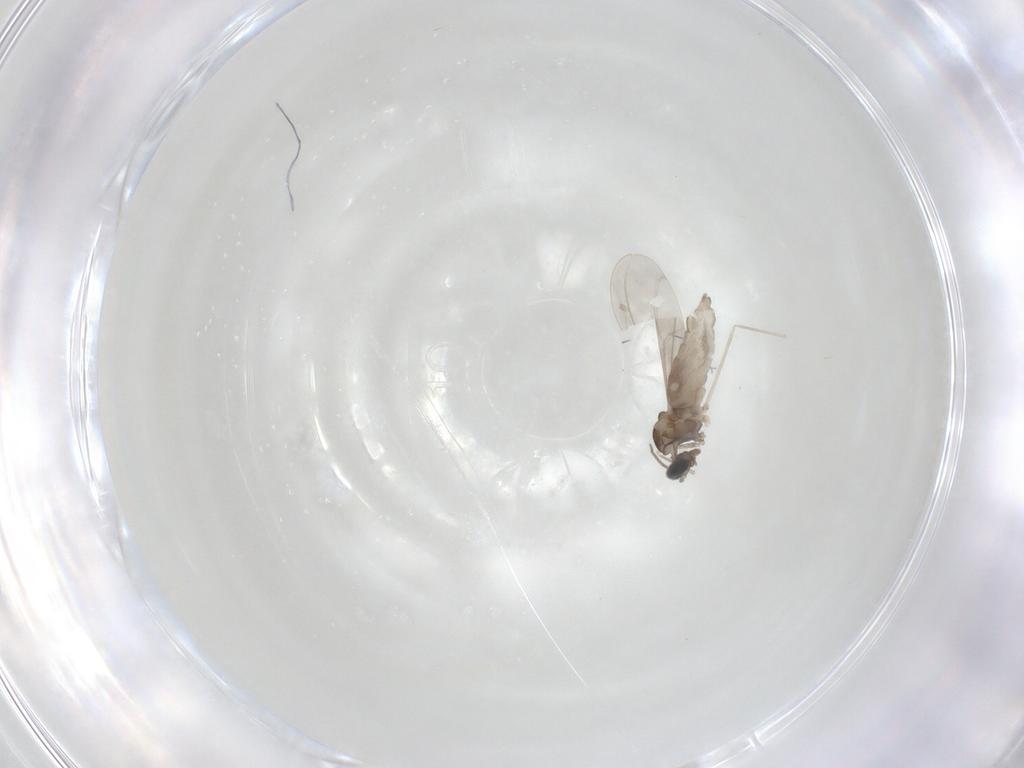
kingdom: Animalia
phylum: Arthropoda
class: Insecta
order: Diptera
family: Cecidomyiidae
